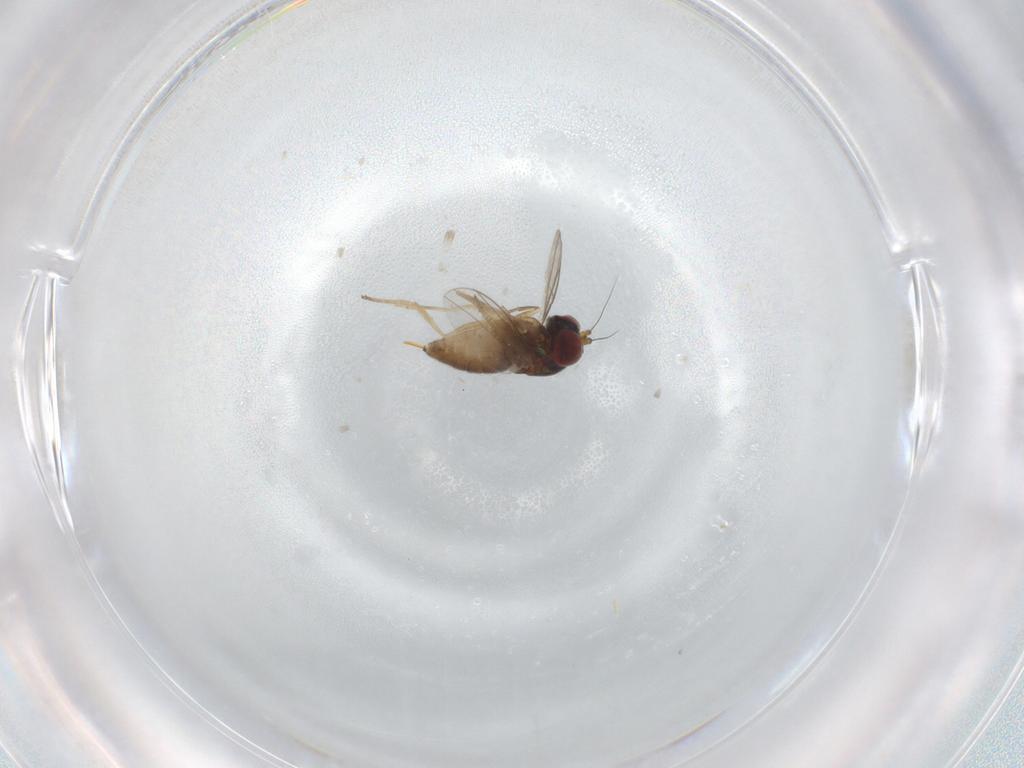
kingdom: Animalia
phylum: Arthropoda
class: Insecta
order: Diptera
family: Dolichopodidae
